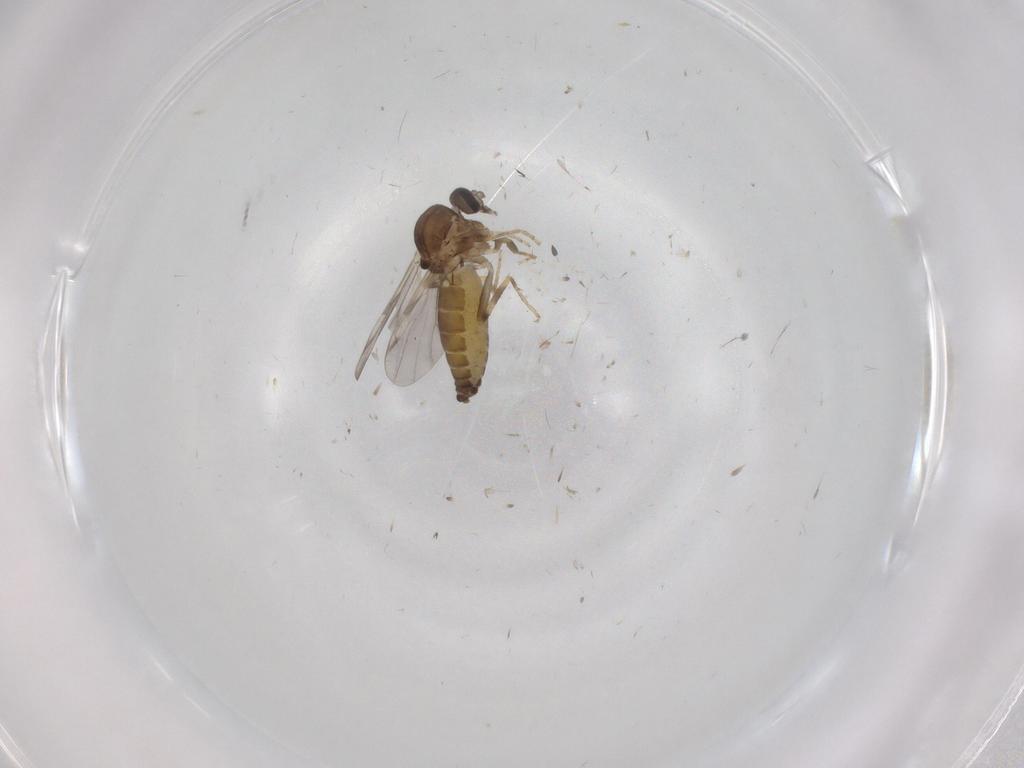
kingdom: Animalia
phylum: Arthropoda
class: Insecta
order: Diptera
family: Ceratopogonidae
